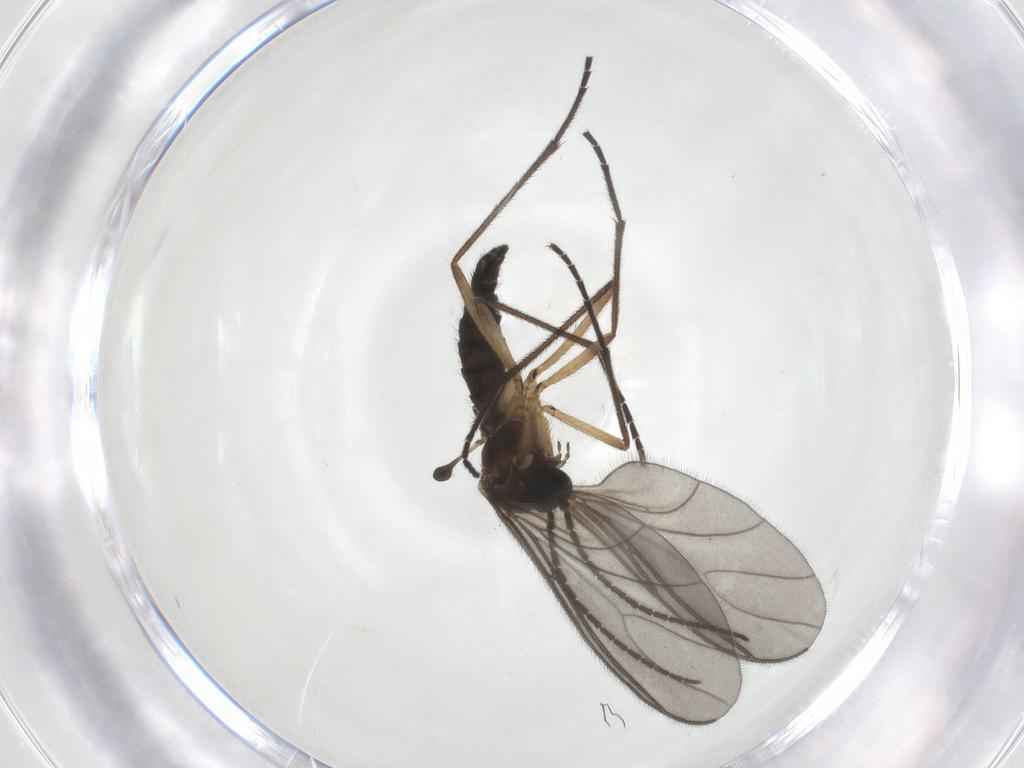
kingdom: Animalia
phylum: Arthropoda
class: Insecta
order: Diptera
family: Sciaridae
